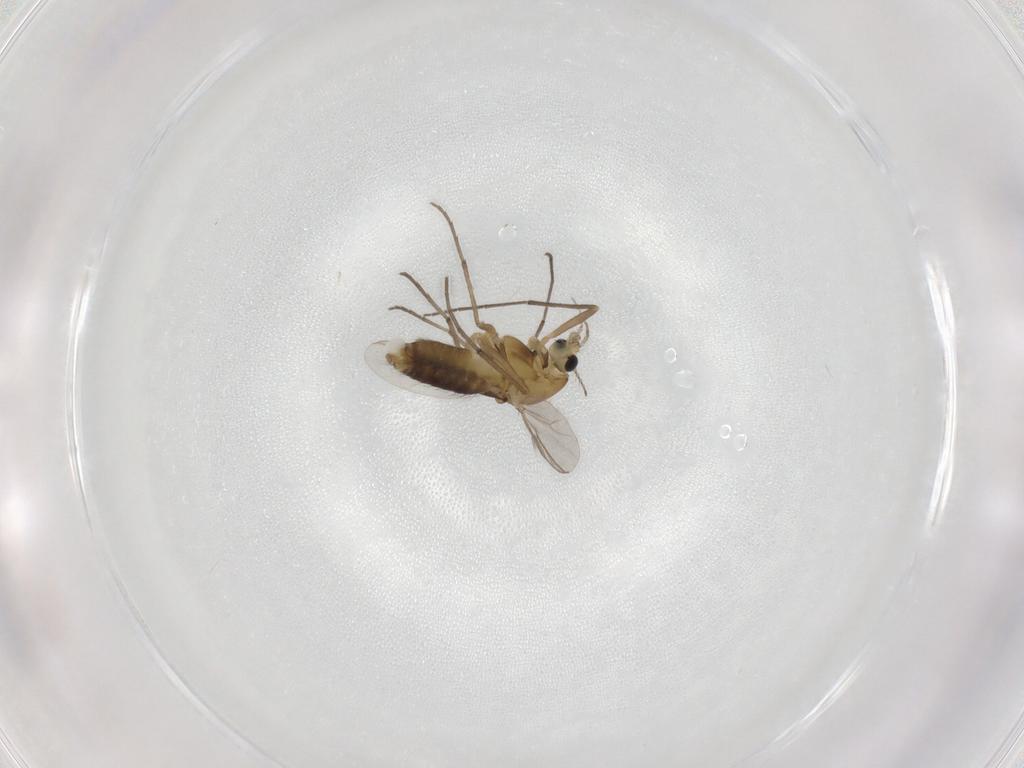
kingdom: Animalia
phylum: Arthropoda
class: Insecta
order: Diptera
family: Chironomidae
